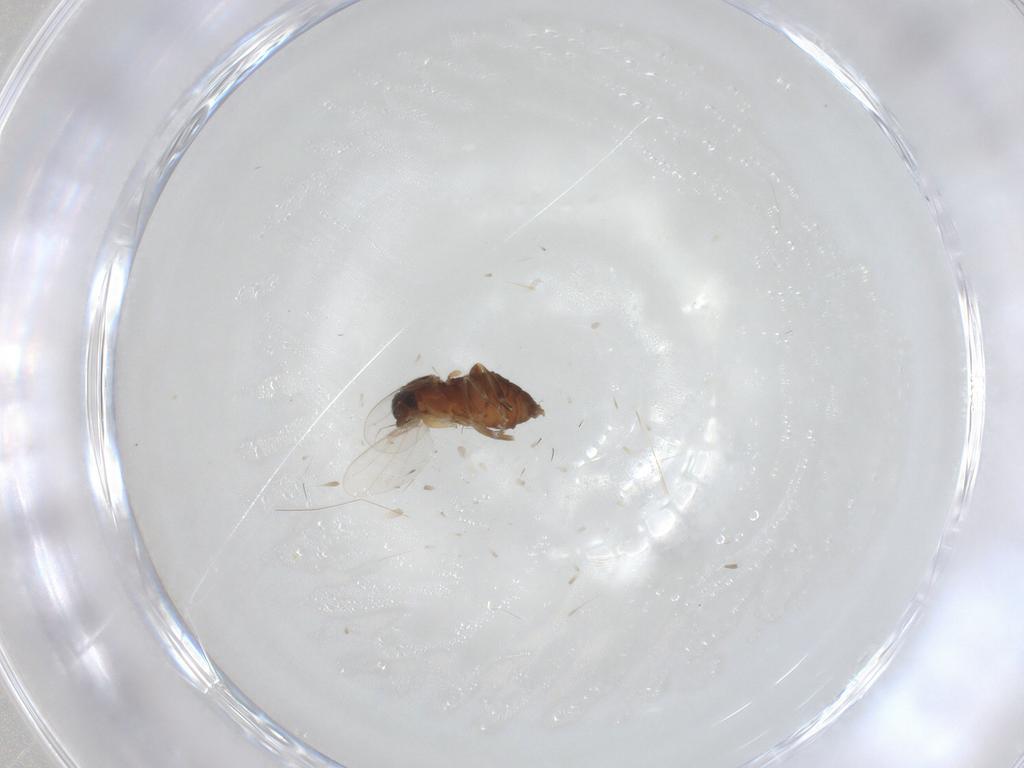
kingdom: Animalia
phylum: Arthropoda
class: Insecta
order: Diptera
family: Phoridae
